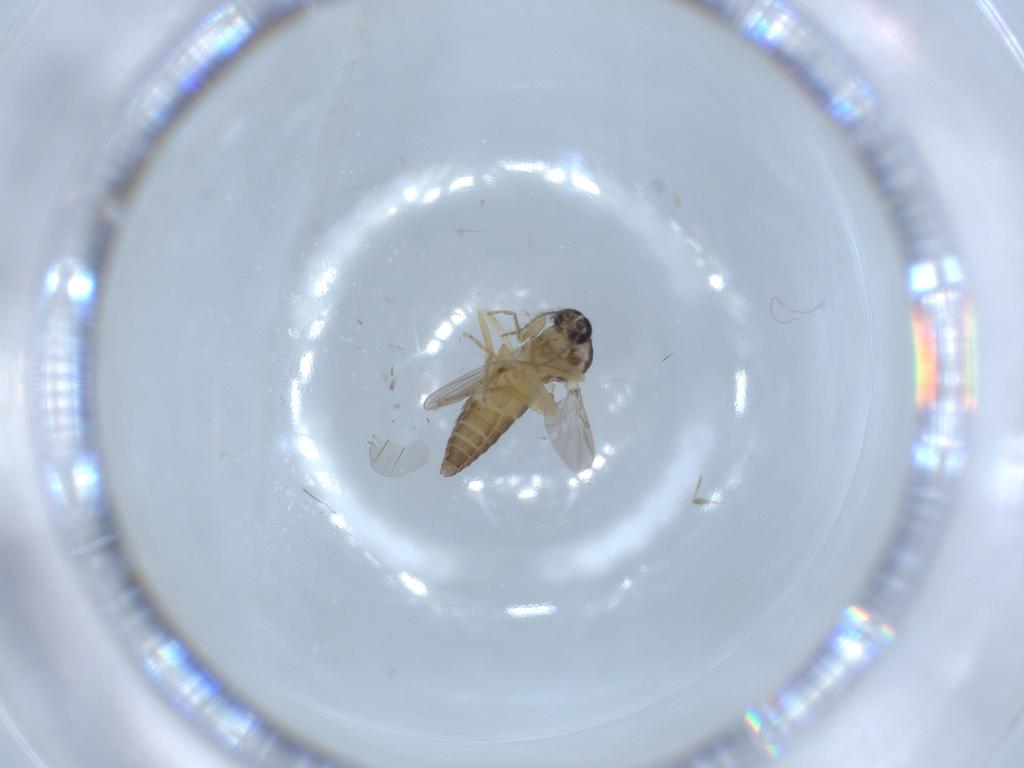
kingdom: Animalia
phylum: Arthropoda
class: Insecta
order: Diptera
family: Ceratopogonidae
